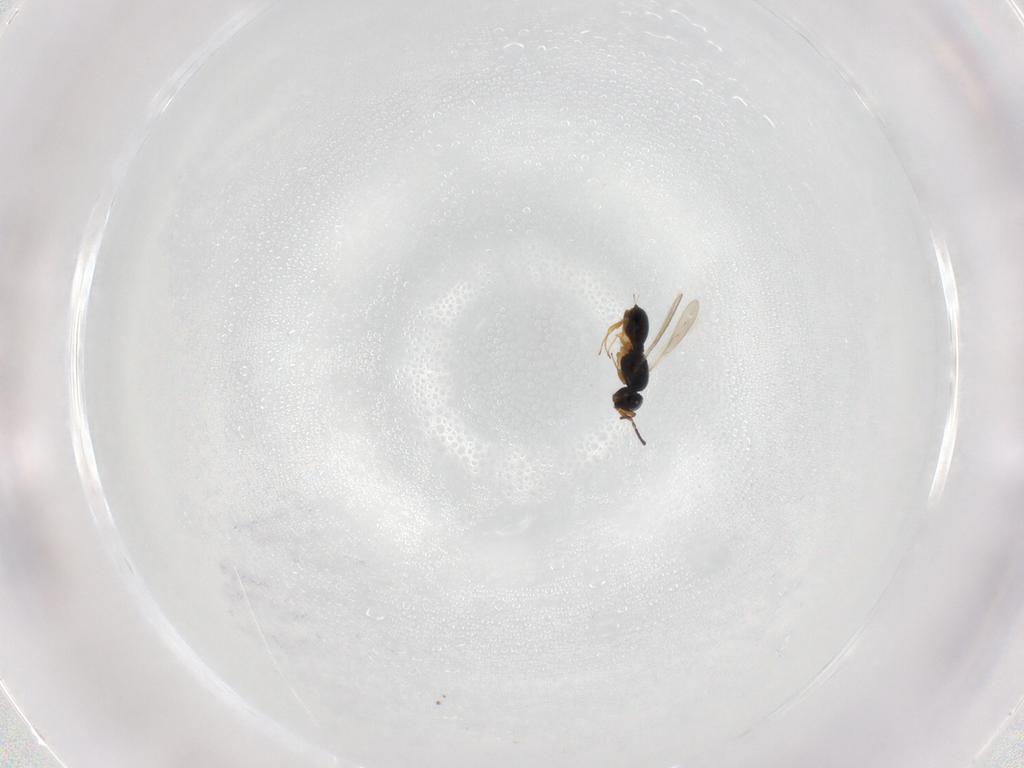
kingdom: Animalia
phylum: Arthropoda
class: Insecta
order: Hymenoptera
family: Scelionidae
